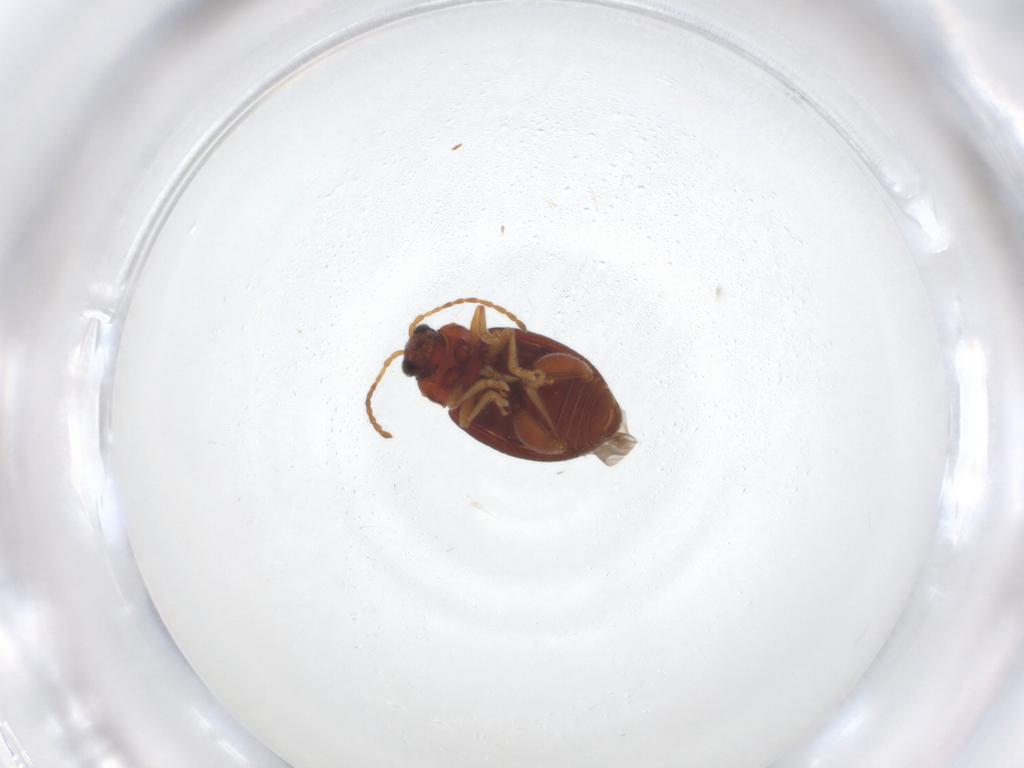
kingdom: Animalia
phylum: Arthropoda
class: Insecta
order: Coleoptera
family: Chrysomelidae
